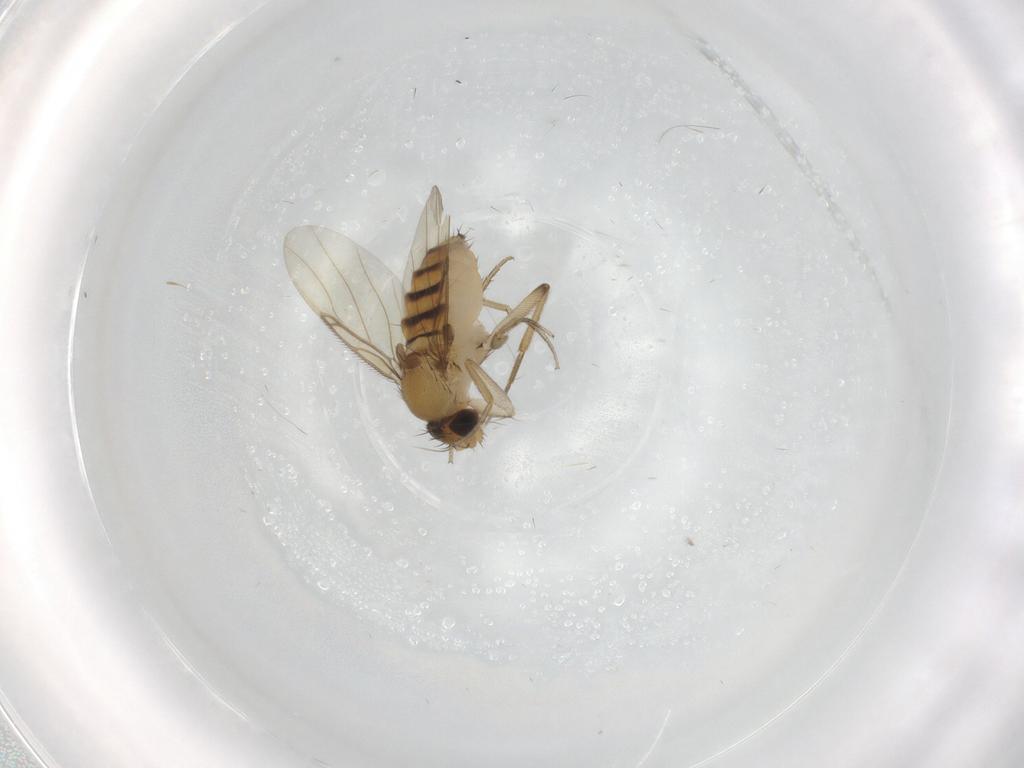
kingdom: Animalia
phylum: Arthropoda
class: Insecta
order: Diptera
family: Phoridae
